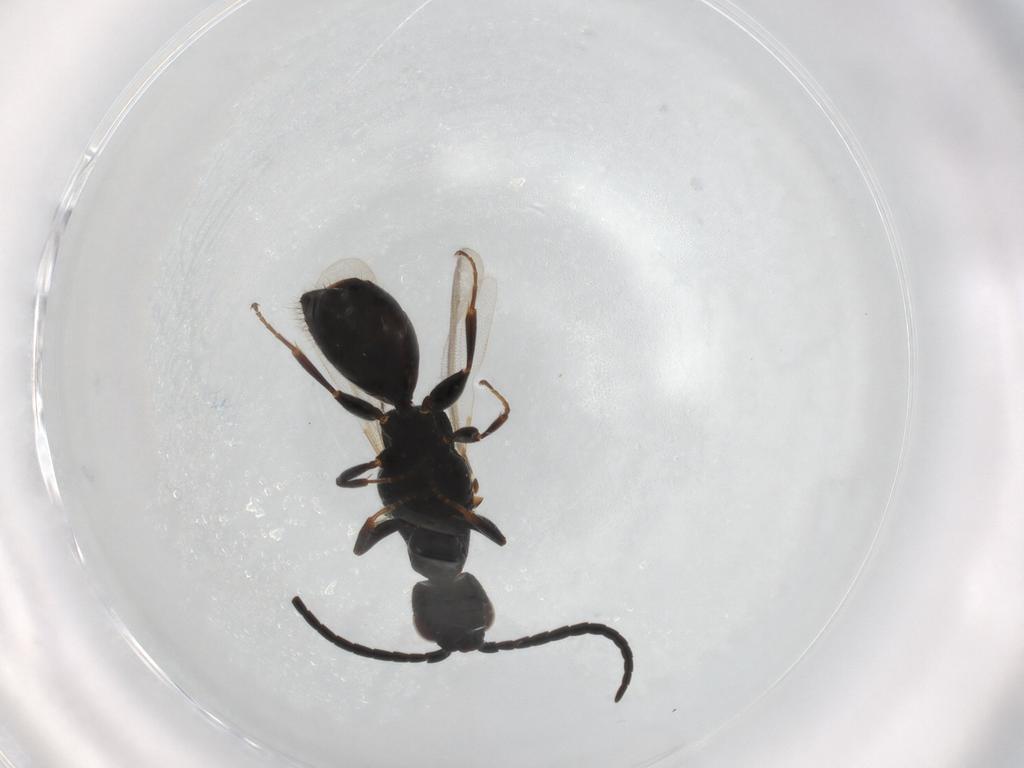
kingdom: Animalia
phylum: Arthropoda
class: Insecta
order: Hymenoptera
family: Bethylidae
